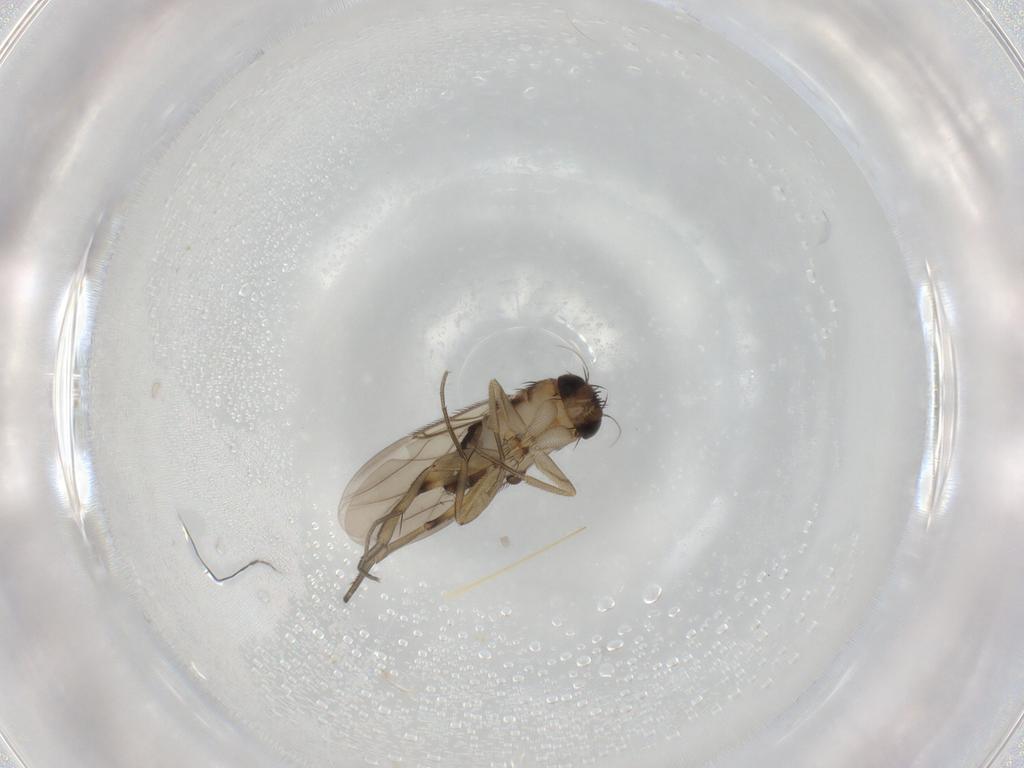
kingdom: Animalia
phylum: Arthropoda
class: Insecta
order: Diptera
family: Phoridae
